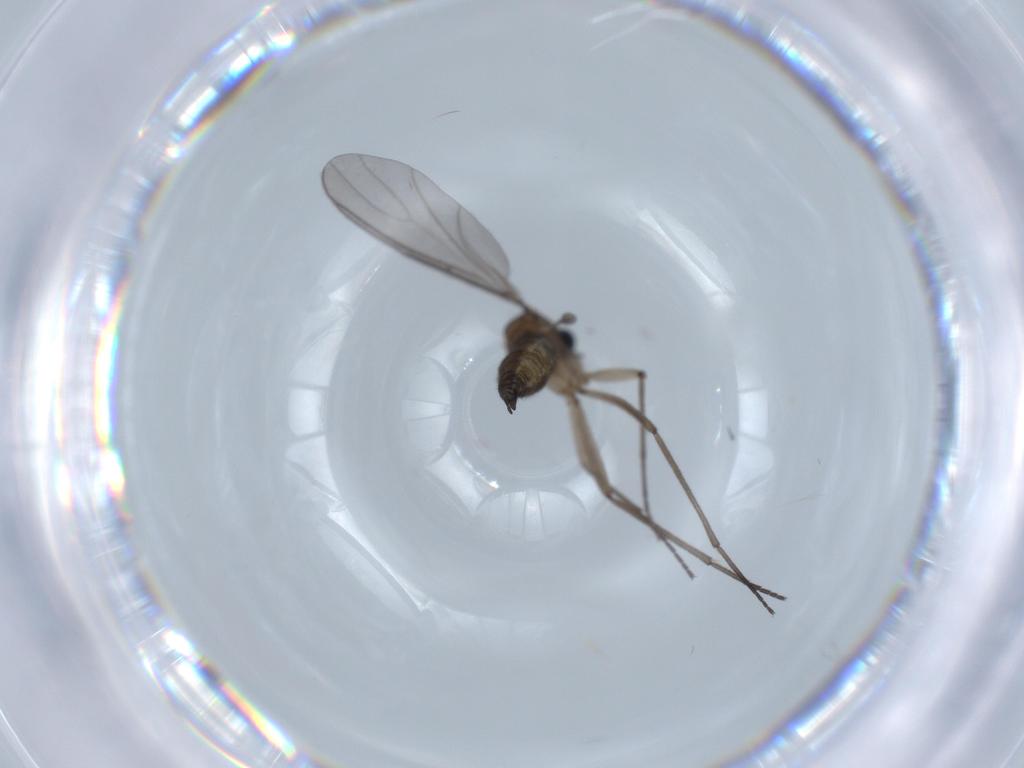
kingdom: Animalia
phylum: Arthropoda
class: Insecta
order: Diptera
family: Sciaridae
